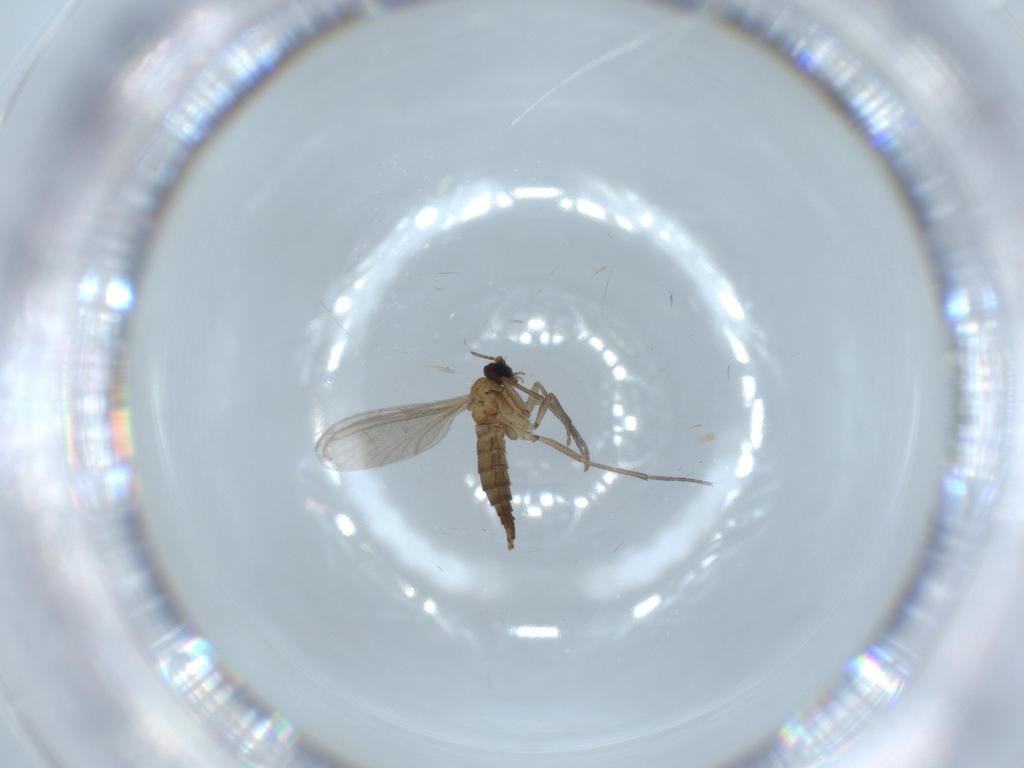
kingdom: Animalia
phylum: Arthropoda
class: Insecta
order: Diptera
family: Sciaridae
